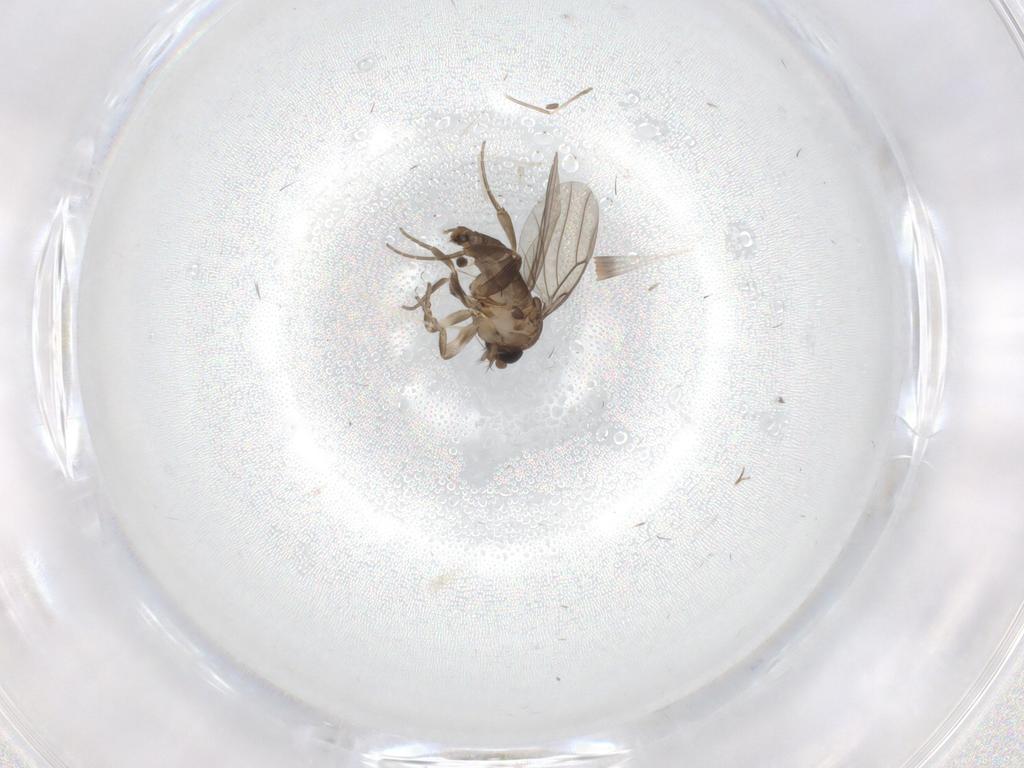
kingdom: Animalia
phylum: Arthropoda
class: Insecta
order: Diptera
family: Cecidomyiidae
